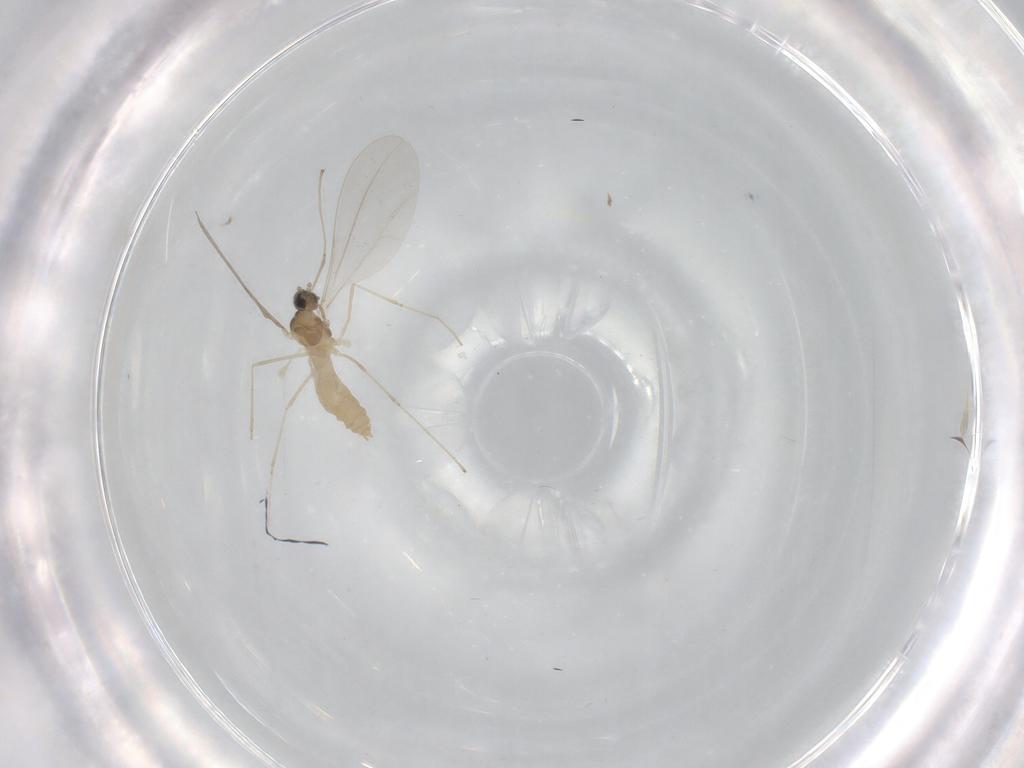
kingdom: Animalia
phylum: Arthropoda
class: Insecta
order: Diptera
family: Cecidomyiidae
